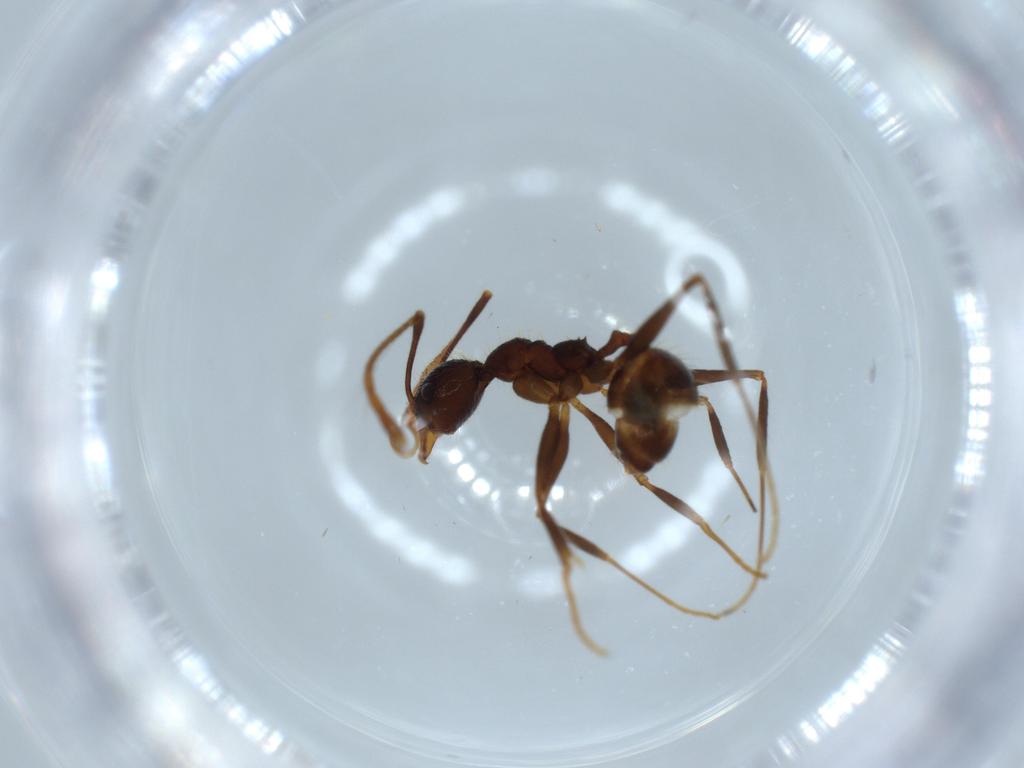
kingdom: Animalia
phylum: Arthropoda
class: Insecta
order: Hymenoptera
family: Formicidae
